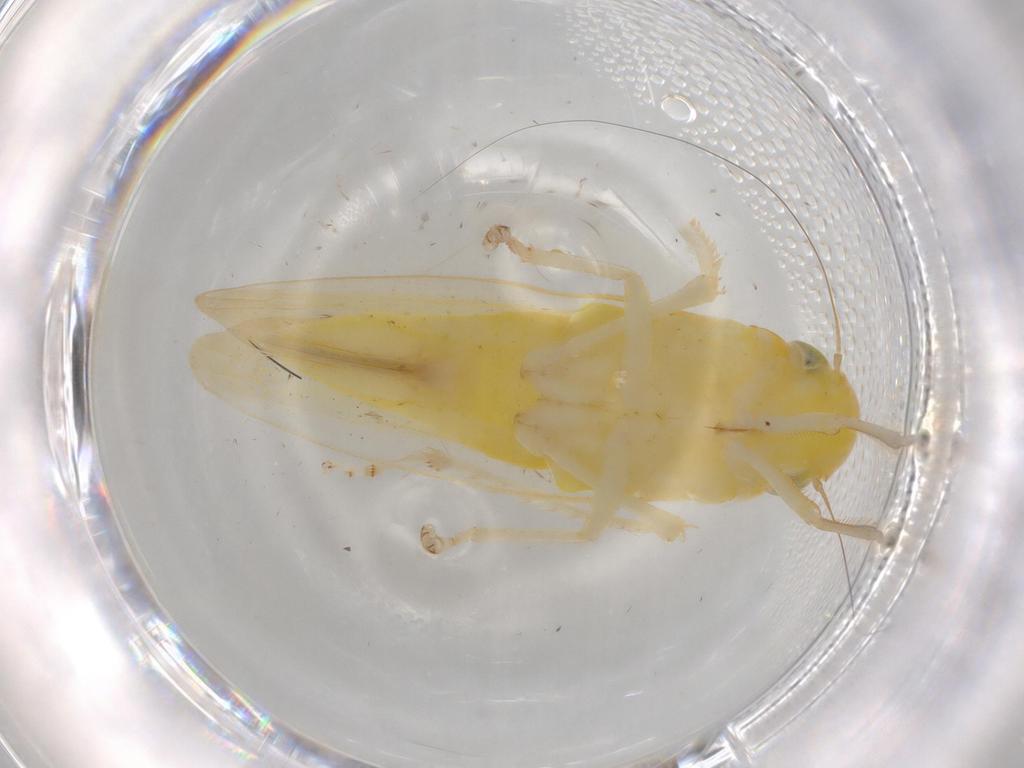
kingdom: Animalia
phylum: Arthropoda
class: Insecta
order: Hemiptera
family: Cicadellidae
